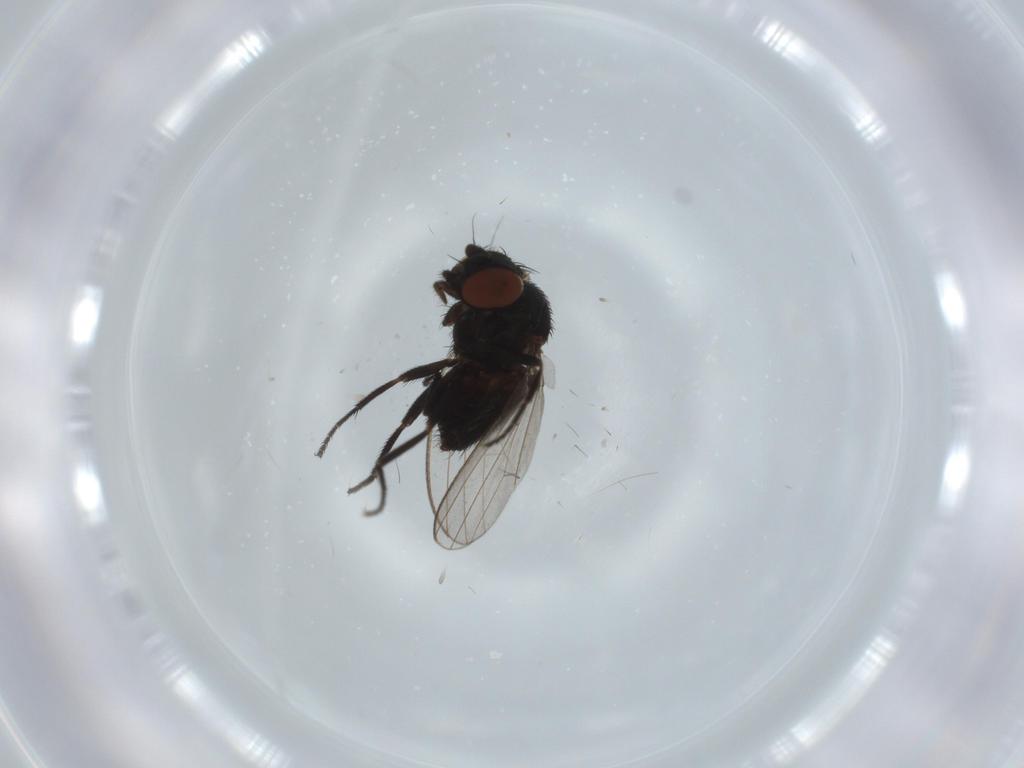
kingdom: Animalia
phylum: Arthropoda
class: Insecta
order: Diptera
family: Milichiidae
